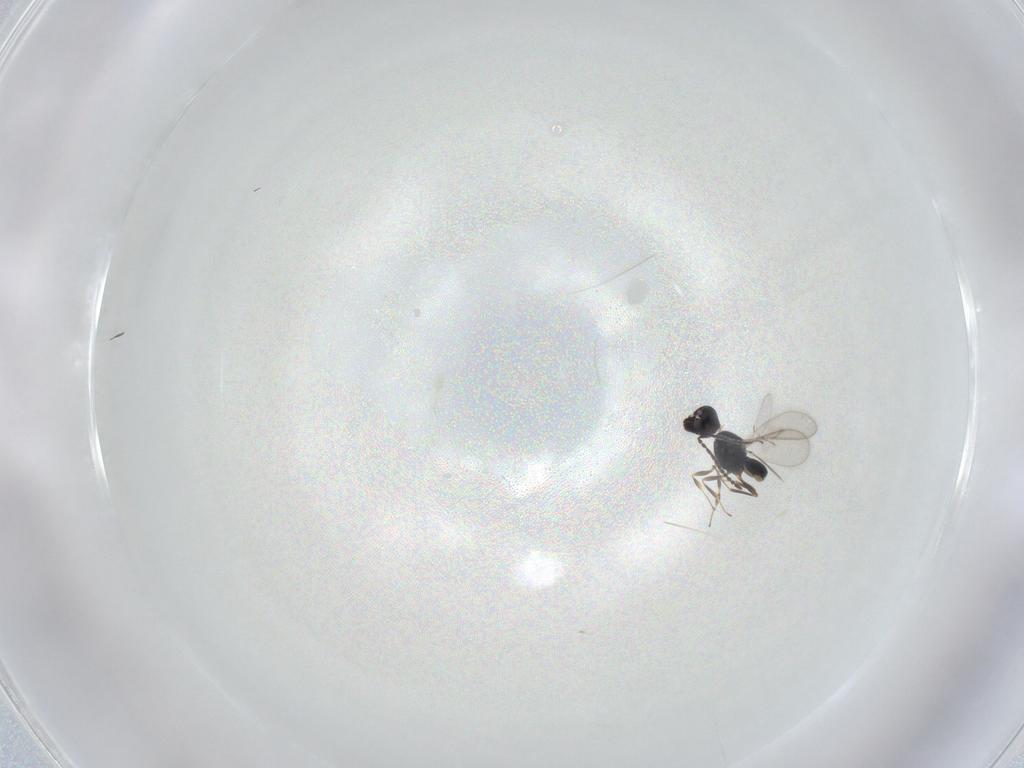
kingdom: Animalia
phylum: Arthropoda
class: Insecta
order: Hymenoptera
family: Scelionidae
